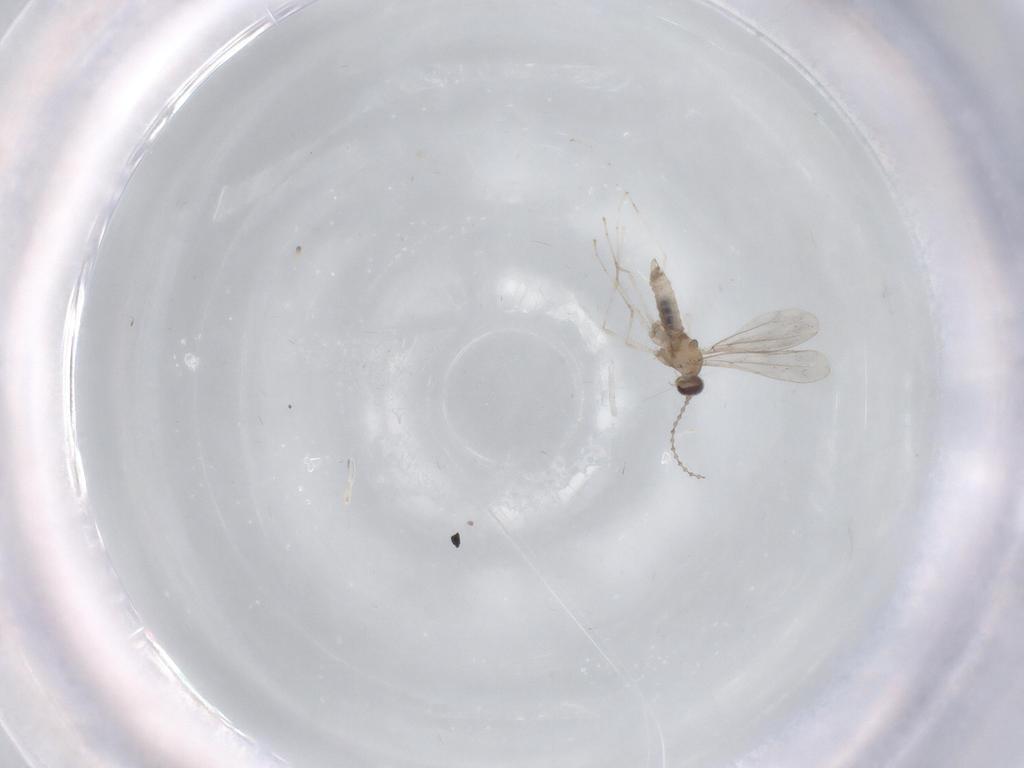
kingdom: Animalia
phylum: Arthropoda
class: Insecta
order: Diptera
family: Cecidomyiidae
